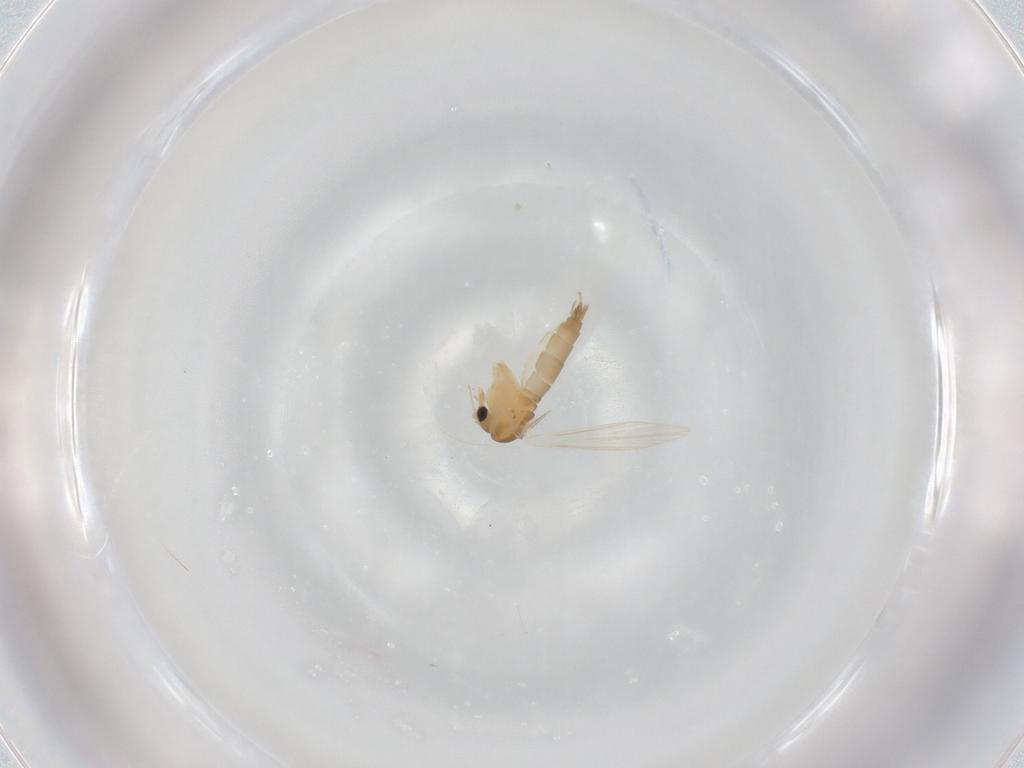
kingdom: Animalia
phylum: Arthropoda
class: Insecta
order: Diptera
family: Psychodidae
